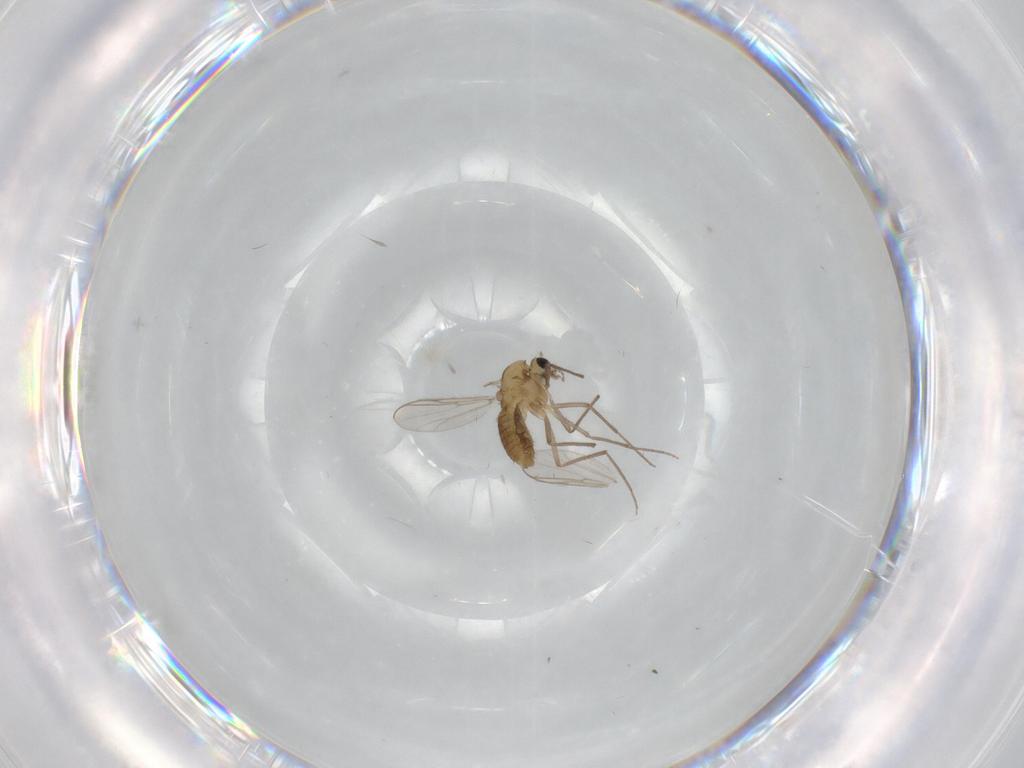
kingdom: Animalia
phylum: Arthropoda
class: Insecta
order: Diptera
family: Chironomidae
